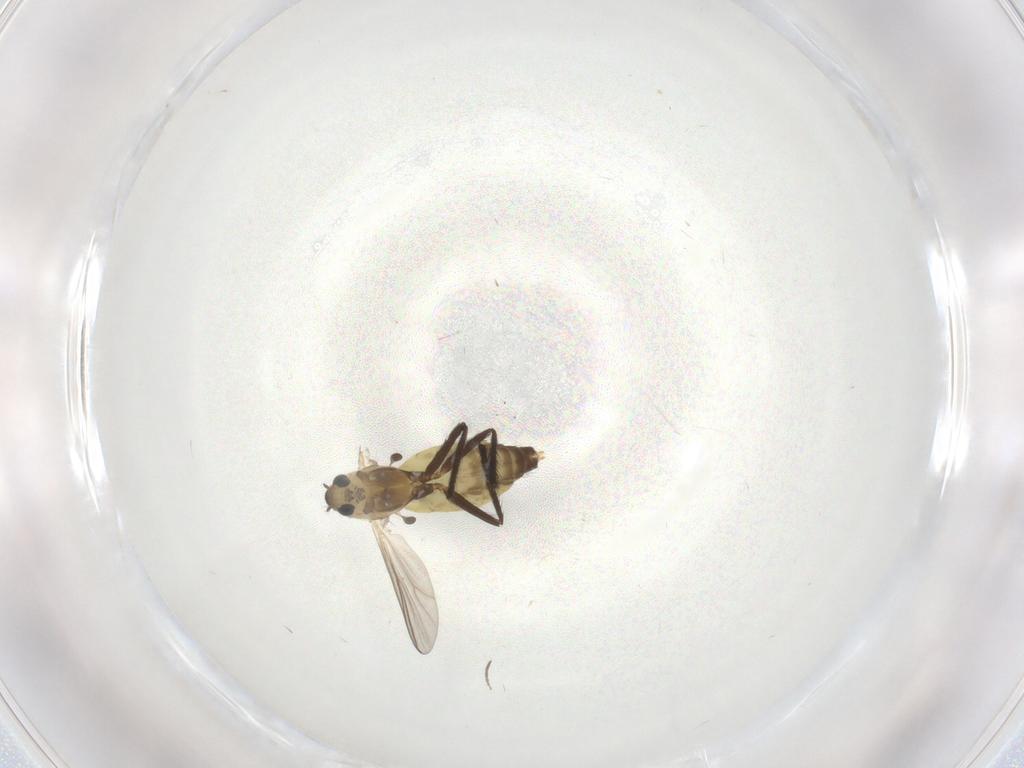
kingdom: Animalia
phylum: Arthropoda
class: Insecta
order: Diptera
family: Chironomidae
